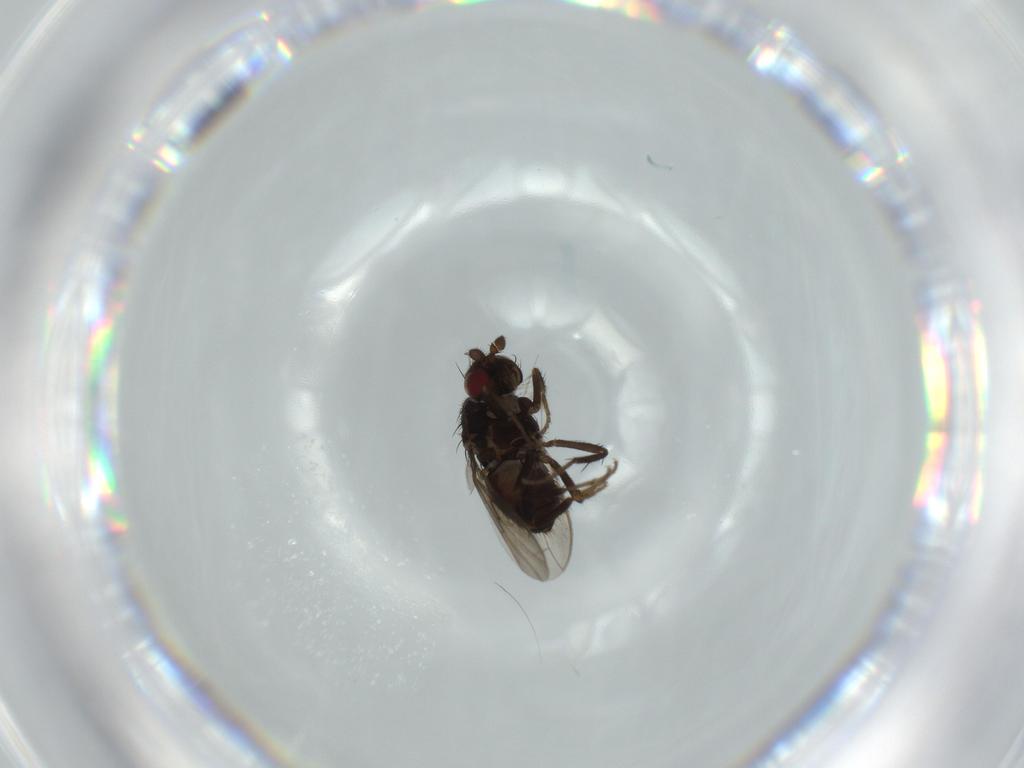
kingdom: Animalia
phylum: Arthropoda
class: Insecta
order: Diptera
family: Sphaeroceridae
